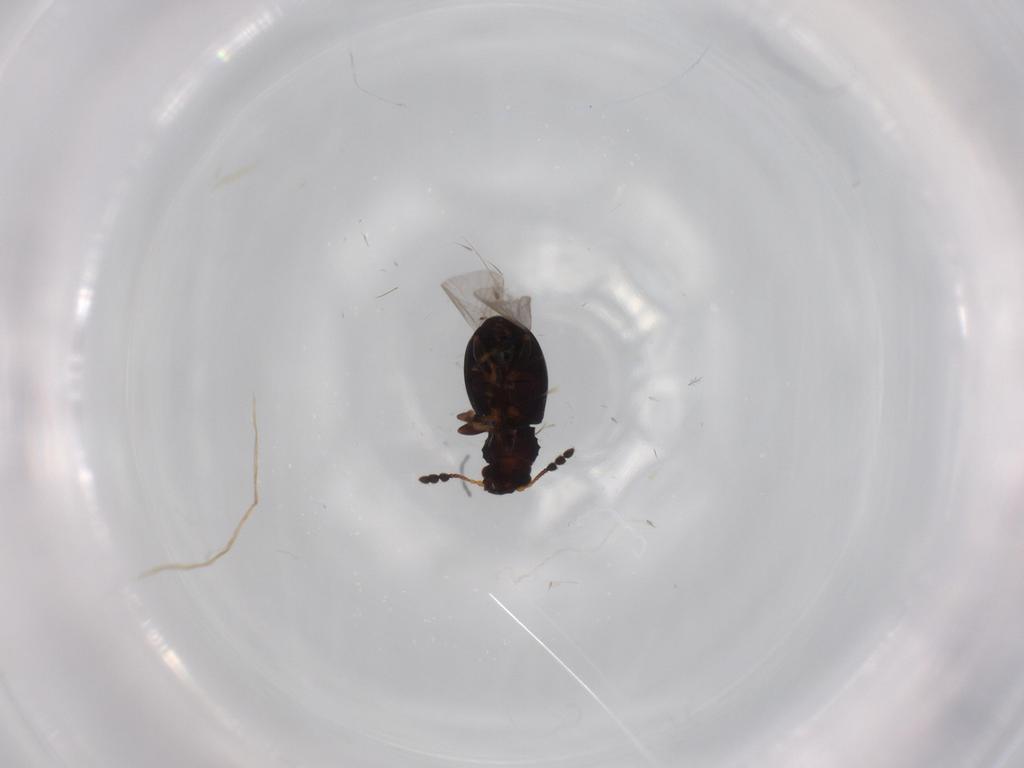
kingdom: Animalia
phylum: Arthropoda
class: Insecta
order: Coleoptera
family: Salpingidae
